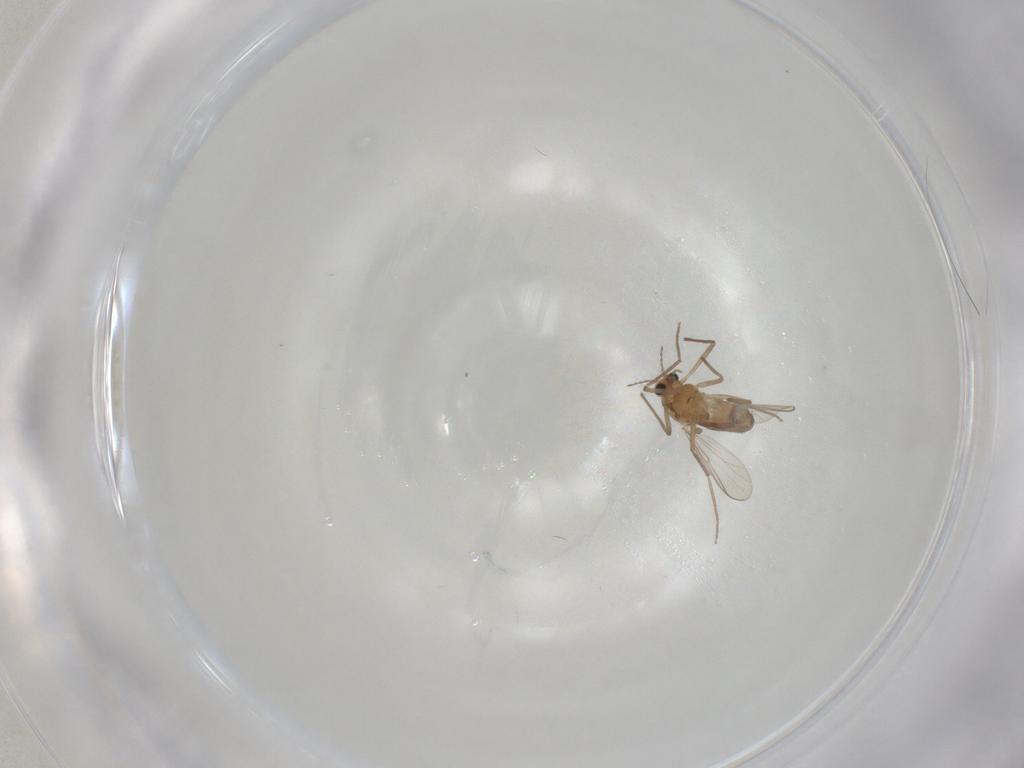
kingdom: Animalia
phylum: Arthropoda
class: Insecta
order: Diptera
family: Chironomidae
